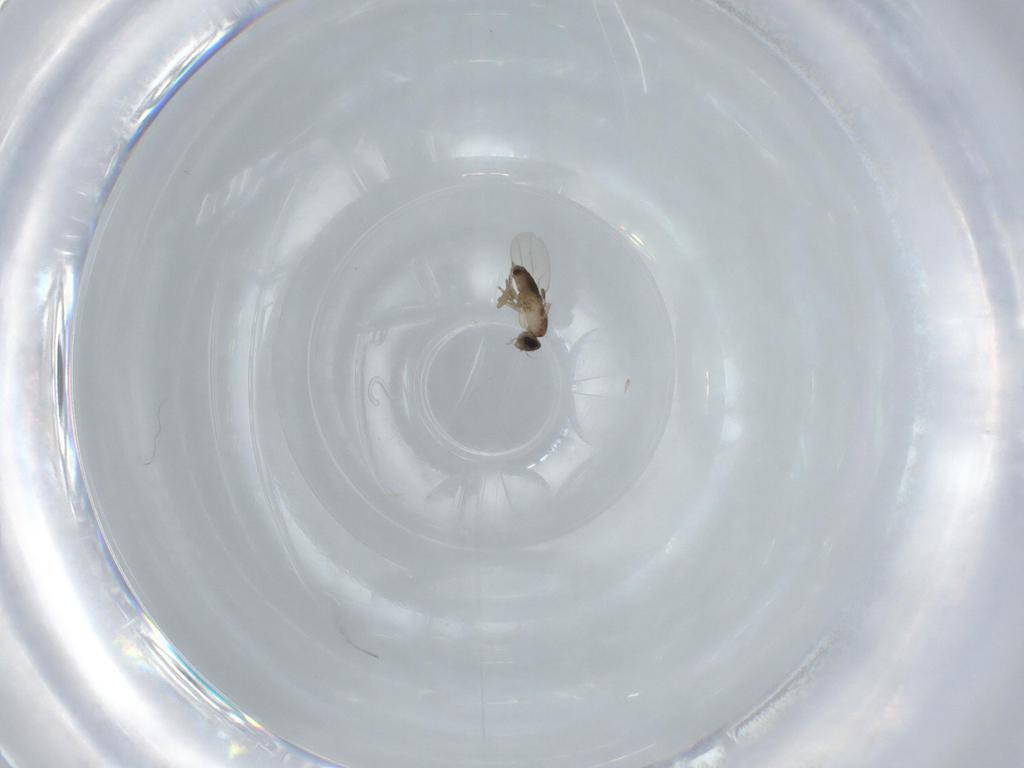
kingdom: Animalia
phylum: Arthropoda
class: Insecta
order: Diptera
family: Phoridae
